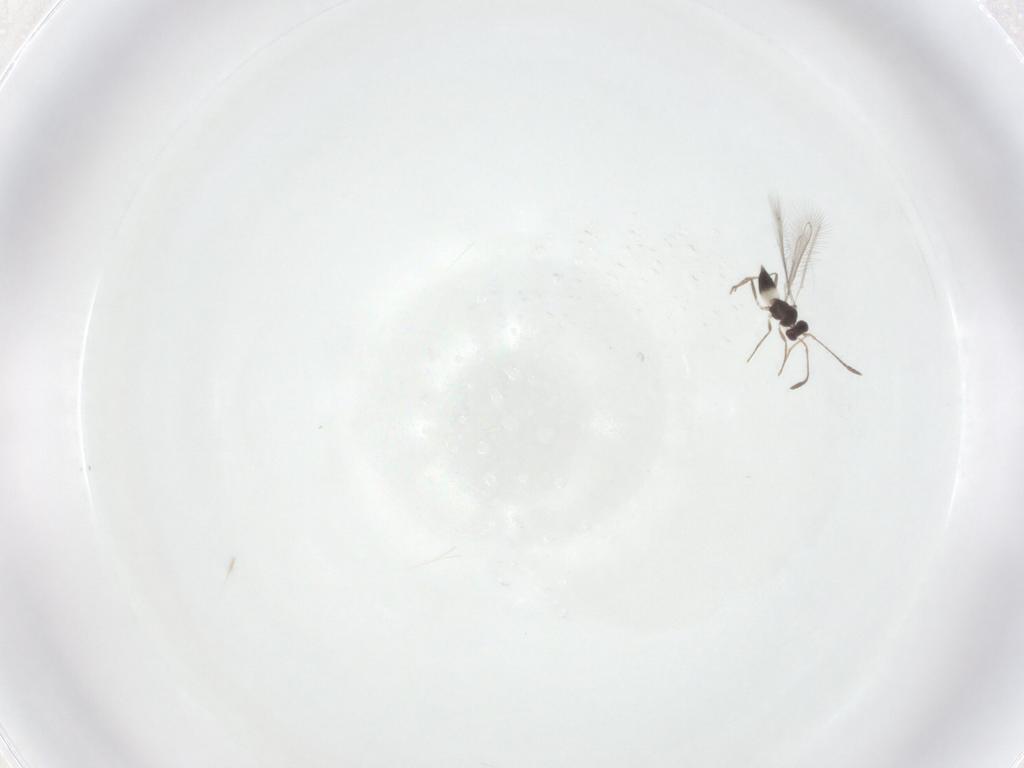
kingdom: Animalia
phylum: Arthropoda
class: Insecta
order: Hymenoptera
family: Mymaridae
